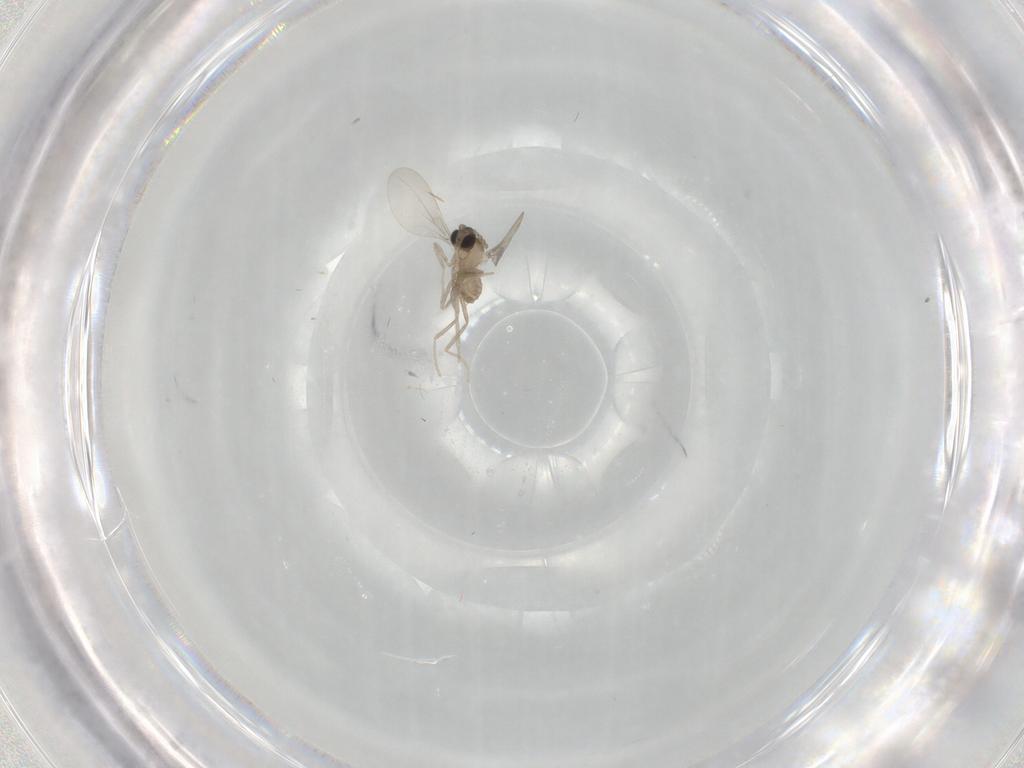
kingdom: Animalia
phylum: Arthropoda
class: Insecta
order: Diptera
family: Cecidomyiidae
